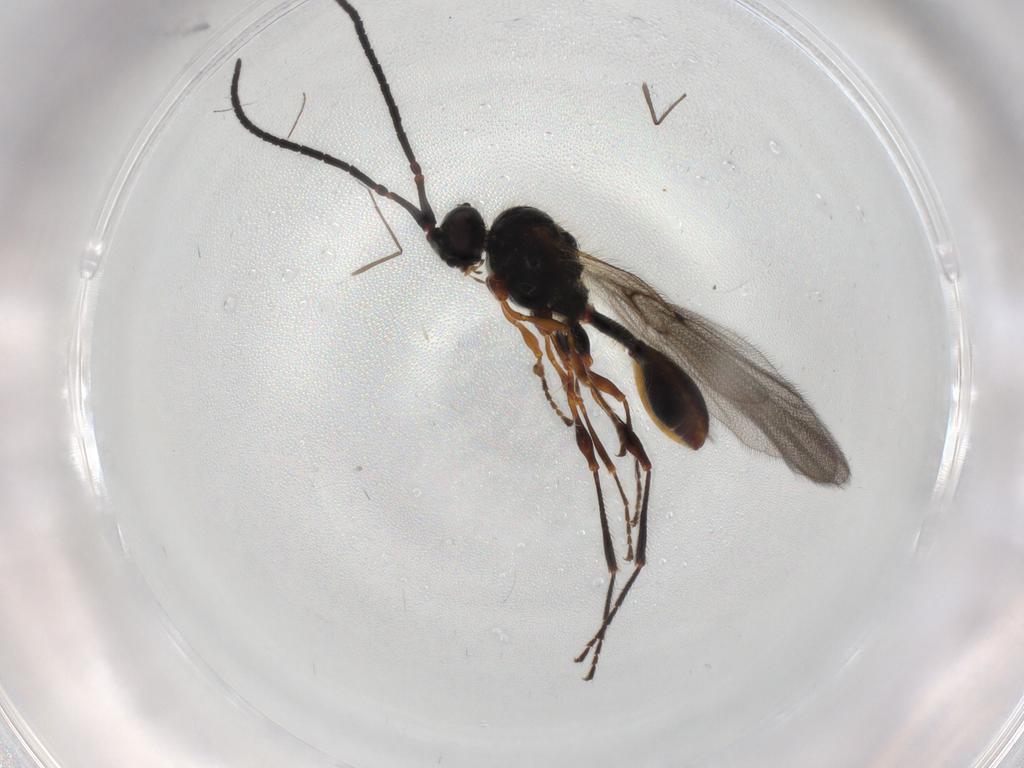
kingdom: Animalia
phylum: Arthropoda
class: Insecta
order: Hymenoptera
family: Diapriidae
